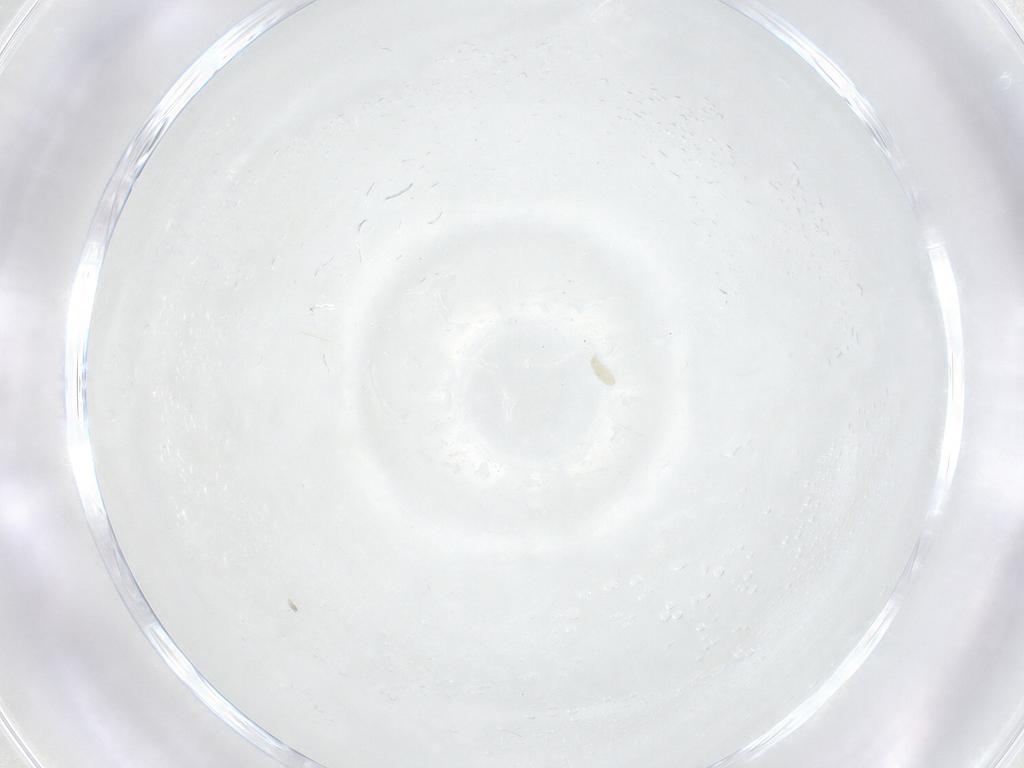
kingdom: Animalia
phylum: Arthropoda
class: Arachnida
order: Trombidiformes
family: Eupodidae
